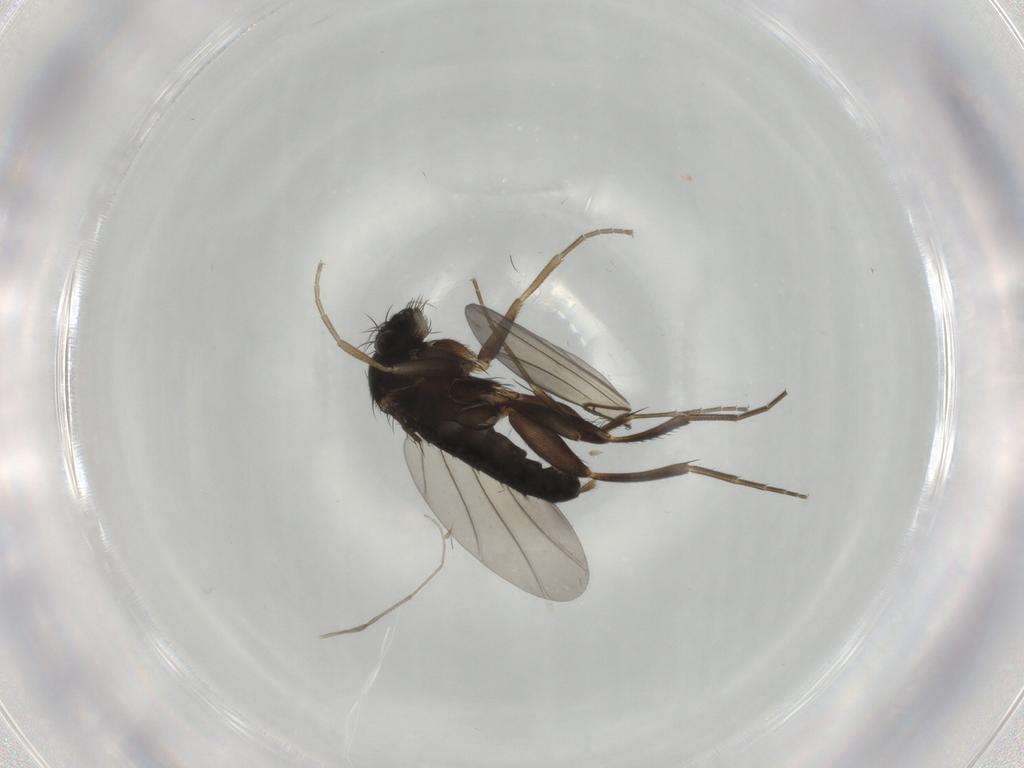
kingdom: Animalia
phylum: Arthropoda
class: Insecta
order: Diptera
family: Phoridae
